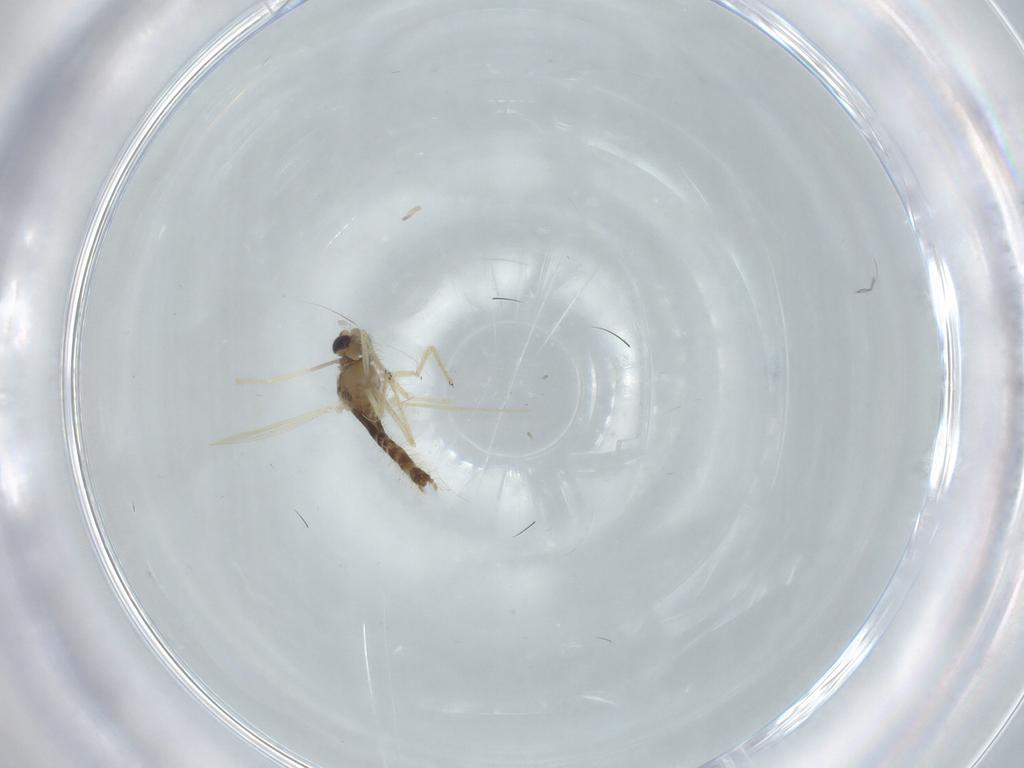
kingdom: Animalia
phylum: Arthropoda
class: Insecta
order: Diptera
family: Chironomidae
